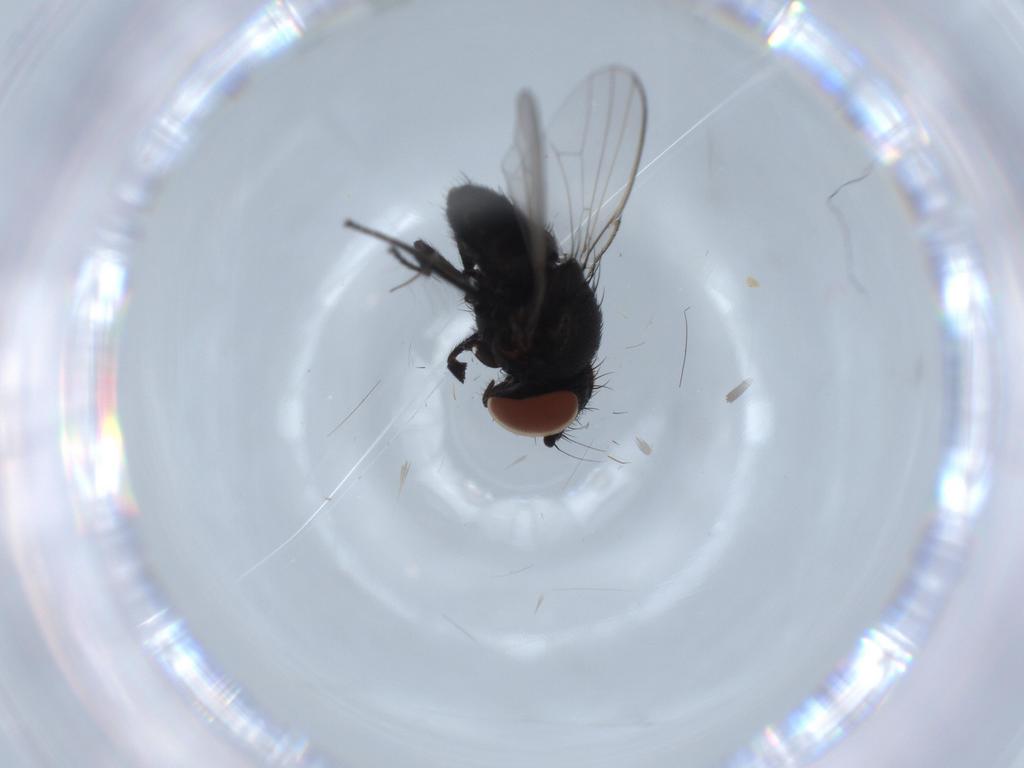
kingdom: Animalia
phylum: Arthropoda
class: Insecta
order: Diptera
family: Milichiidae
